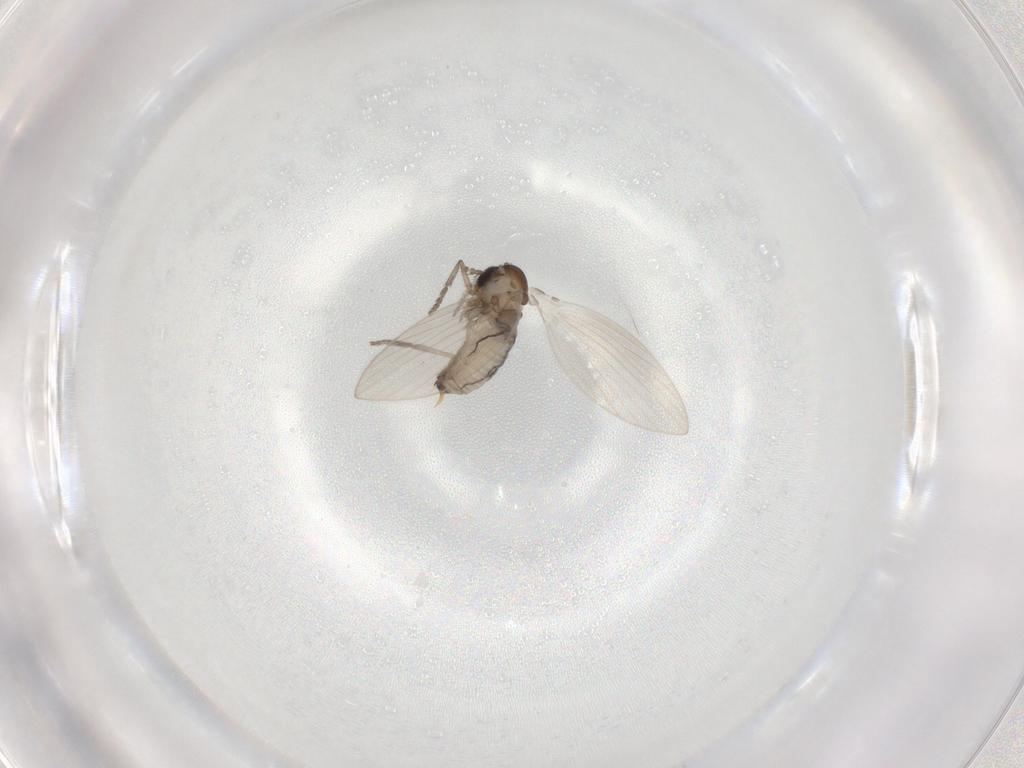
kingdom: Animalia
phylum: Arthropoda
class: Insecta
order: Diptera
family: Psychodidae
